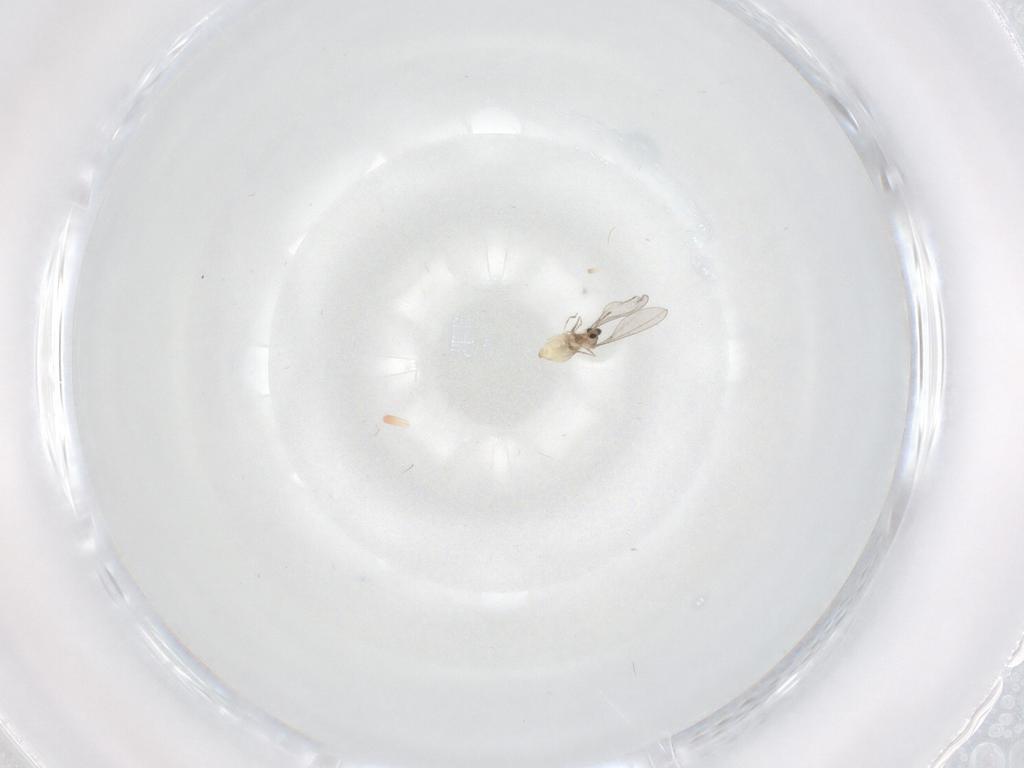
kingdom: Animalia
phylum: Arthropoda
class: Insecta
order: Diptera
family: Cecidomyiidae
